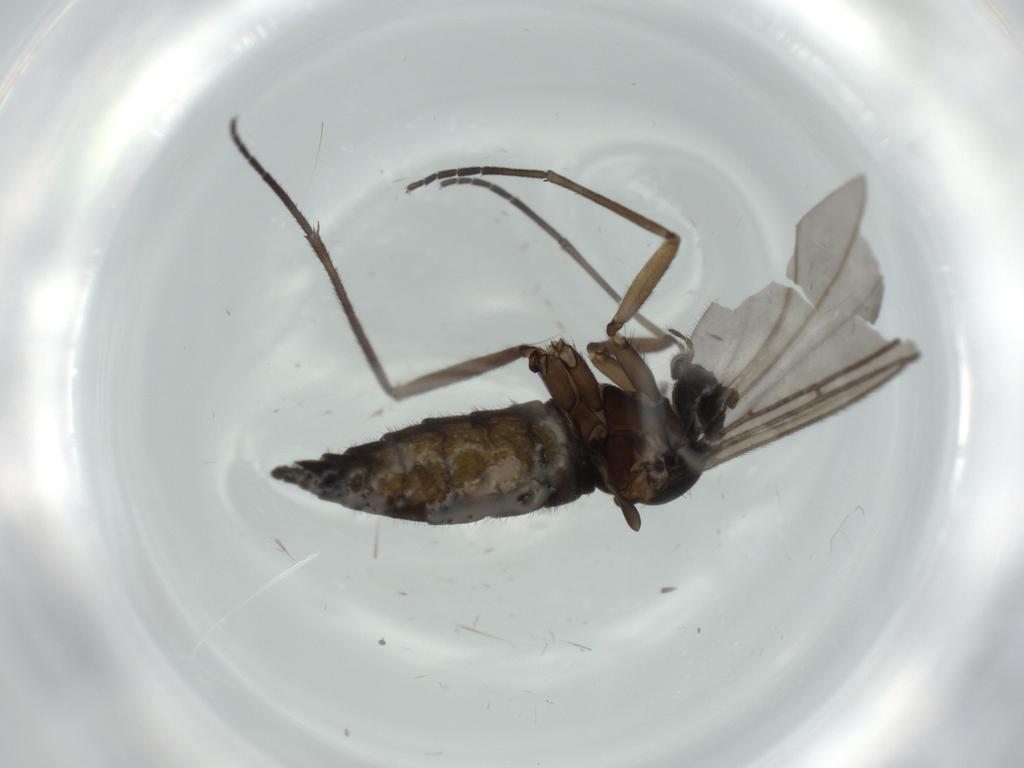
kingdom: Animalia
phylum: Arthropoda
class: Insecta
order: Diptera
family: Sciaridae
